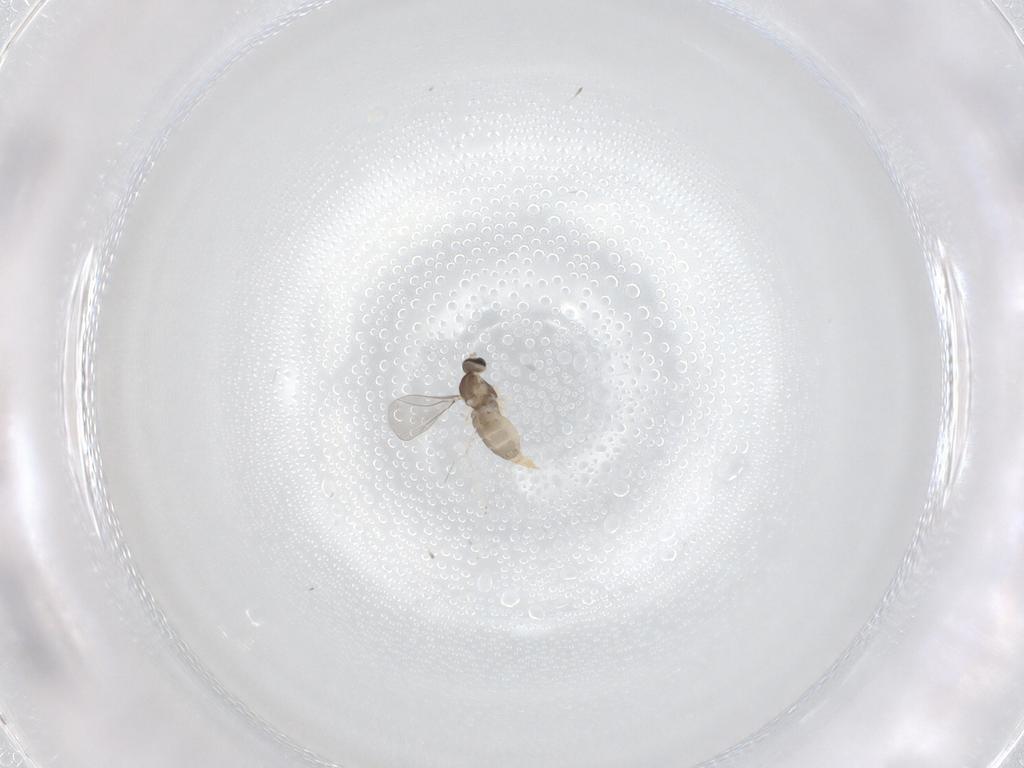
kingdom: Animalia
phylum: Arthropoda
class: Insecta
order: Diptera
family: Cecidomyiidae
